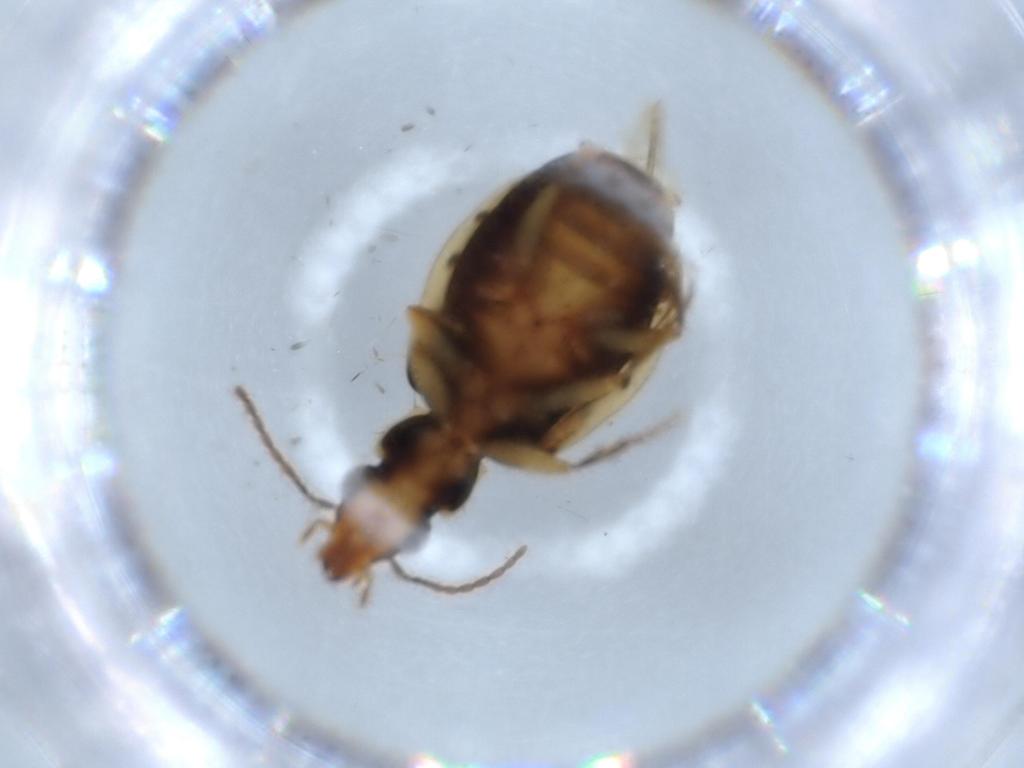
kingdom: Animalia
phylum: Arthropoda
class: Insecta
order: Coleoptera
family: Carabidae
